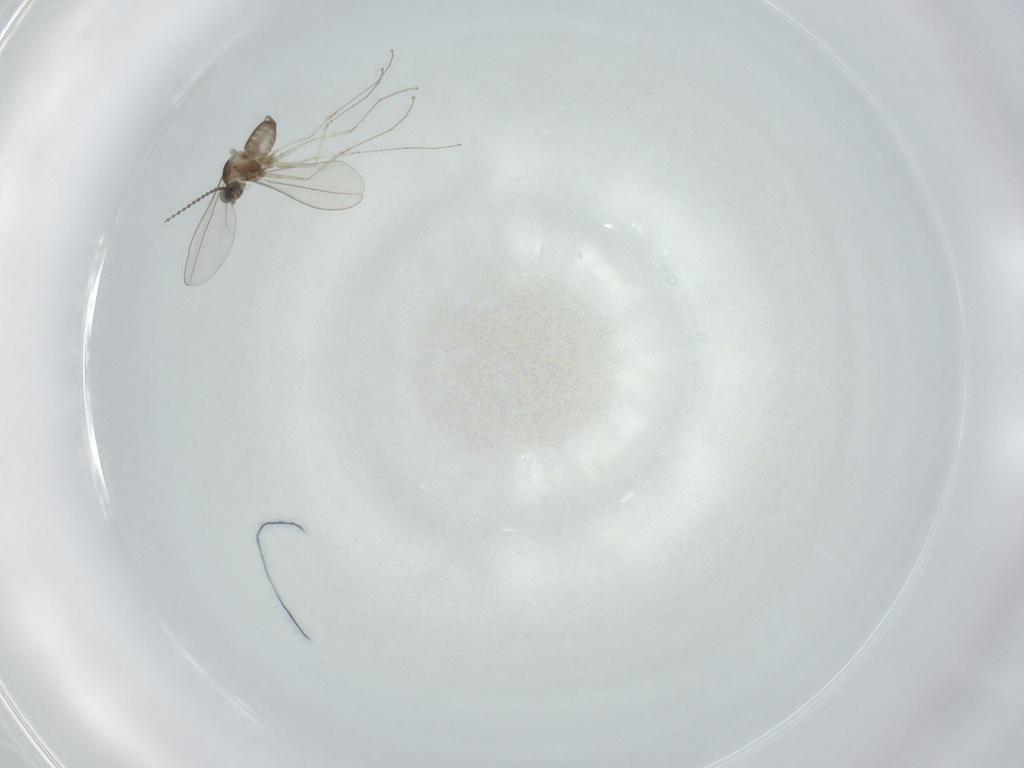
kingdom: Animalia
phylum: Arthropoda
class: Insecta
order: Diptera
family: Cecidomyiidae
